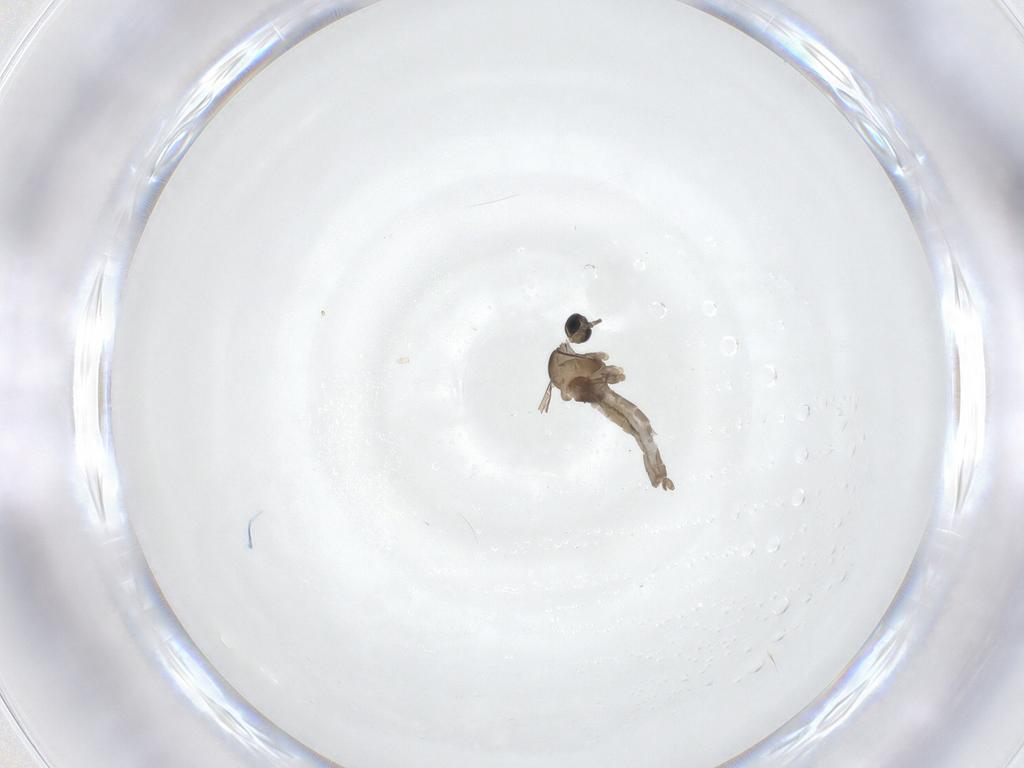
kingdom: Animalia
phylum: Arthropoda
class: Insecta
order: Diptera
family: Cecidomyiidae
